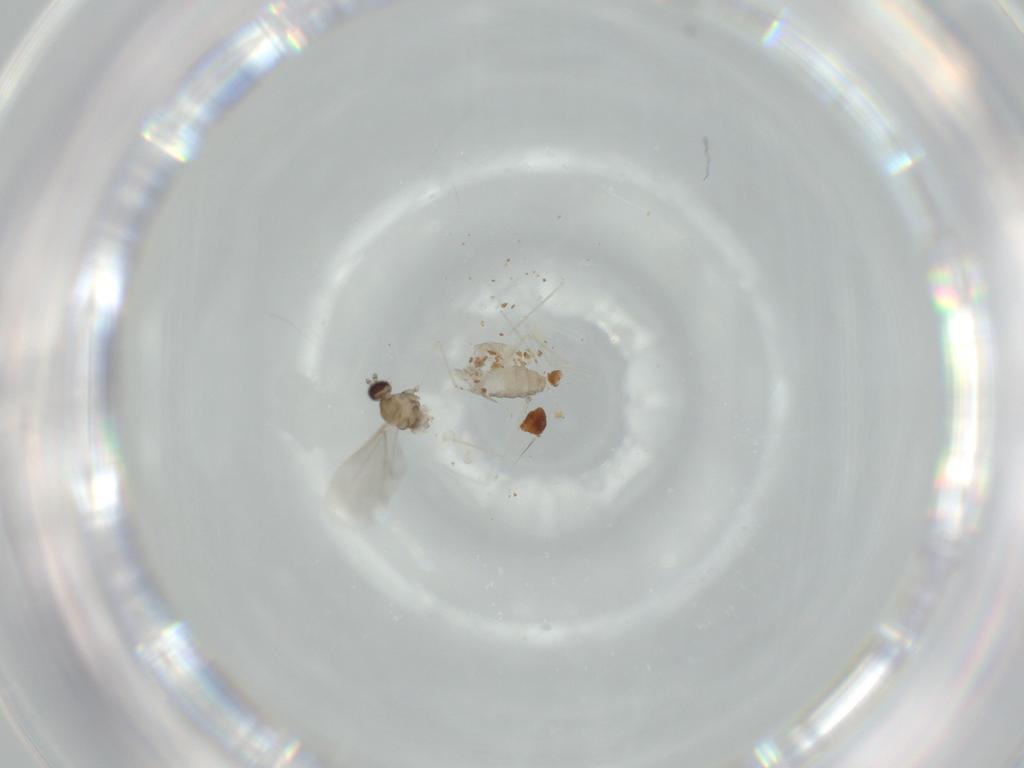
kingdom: Animalia
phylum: Arthropoda
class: Insecta
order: Diptera
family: Cecidomyiidae
